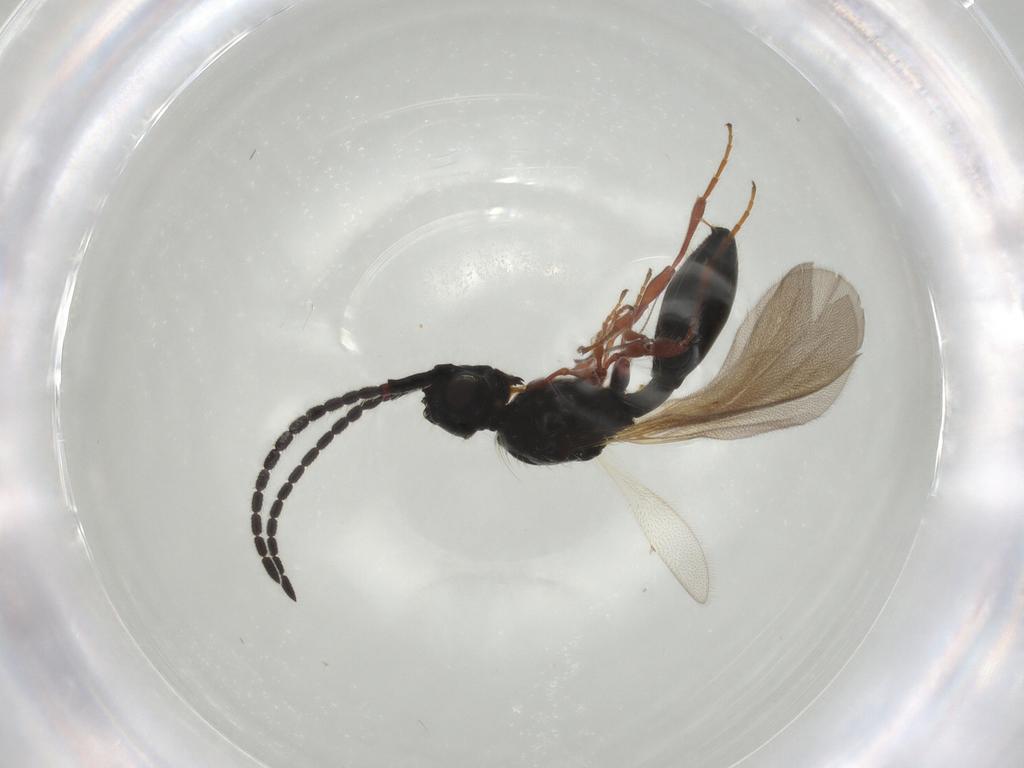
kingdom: Animalia
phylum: Arthropoda
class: Insecta
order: Hymenoptera
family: Diapriidae
